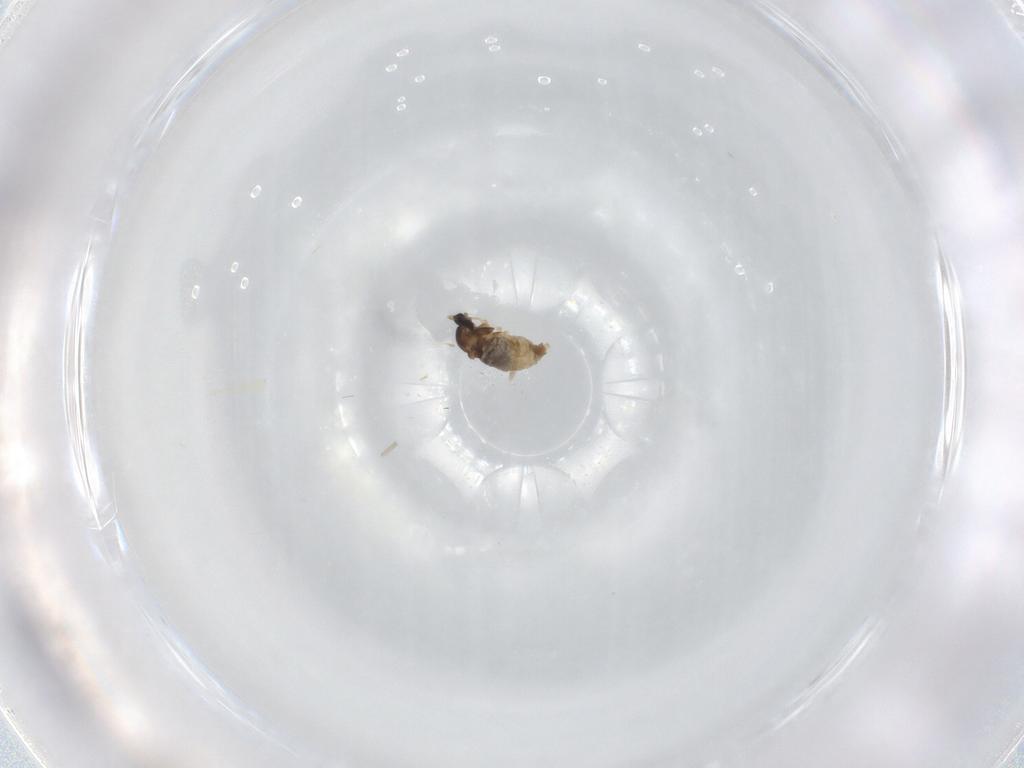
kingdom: Animalia
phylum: Arthropoda
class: Insecta
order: Diptera
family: Cecidomyiidae
